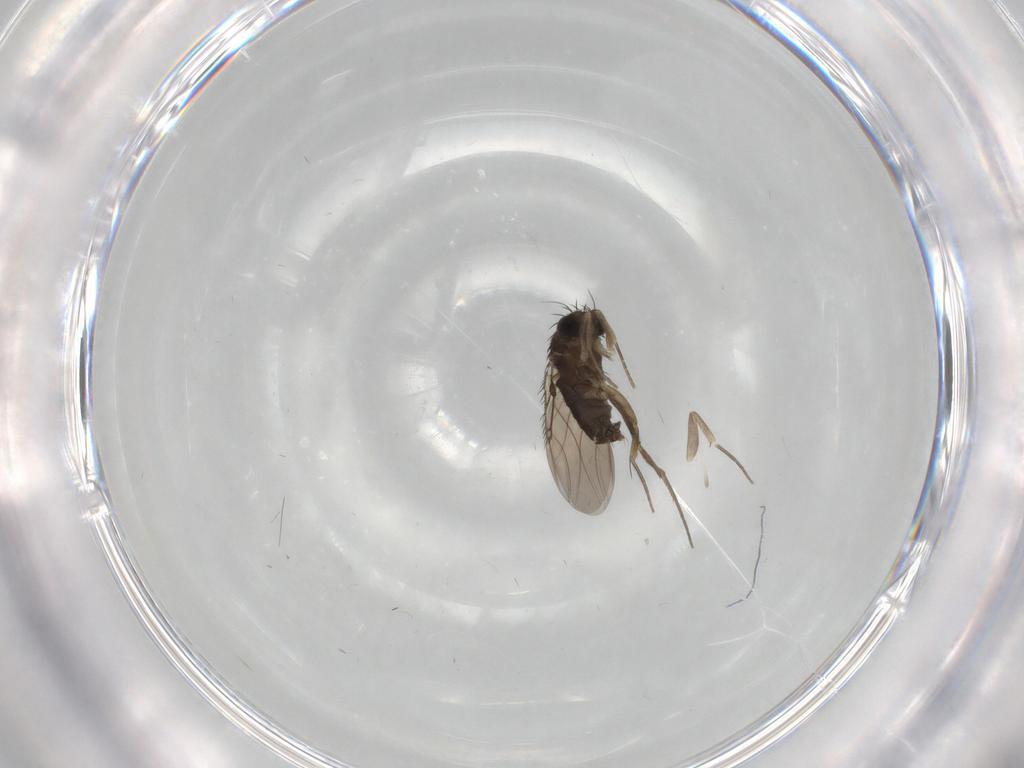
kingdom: Animalia
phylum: Arthropoda
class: Insecta
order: Diptera
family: Phoridae
